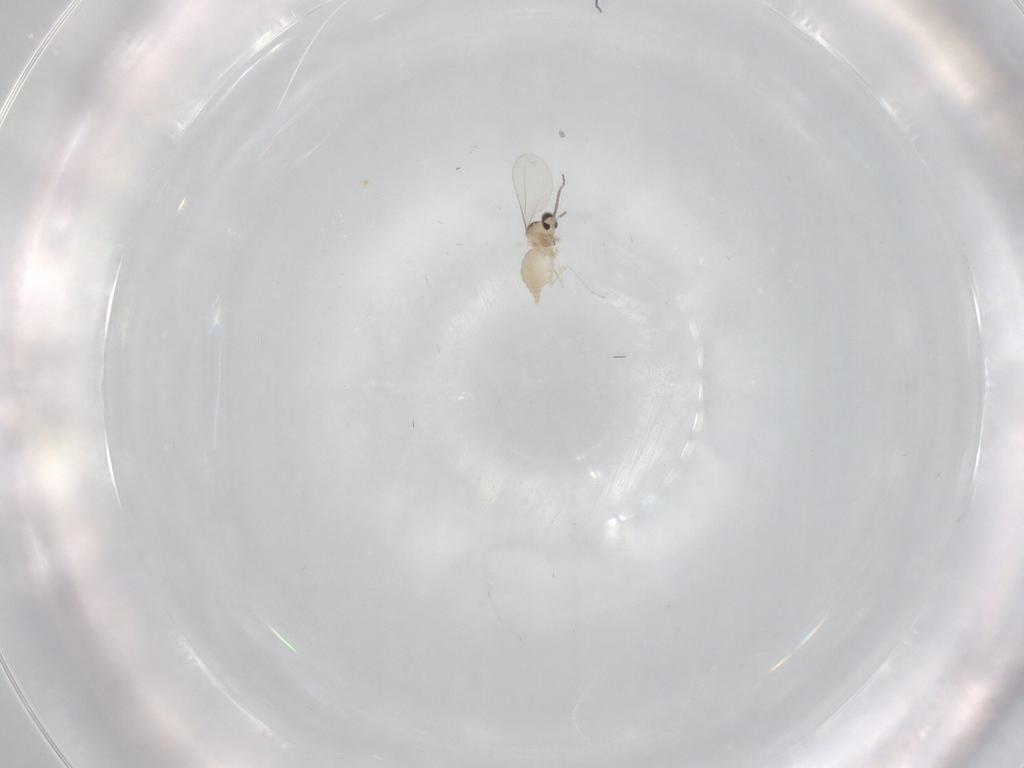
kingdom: Animalia
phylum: Arthropoda
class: Insecta
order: Diptera
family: Cecidomyiidae
